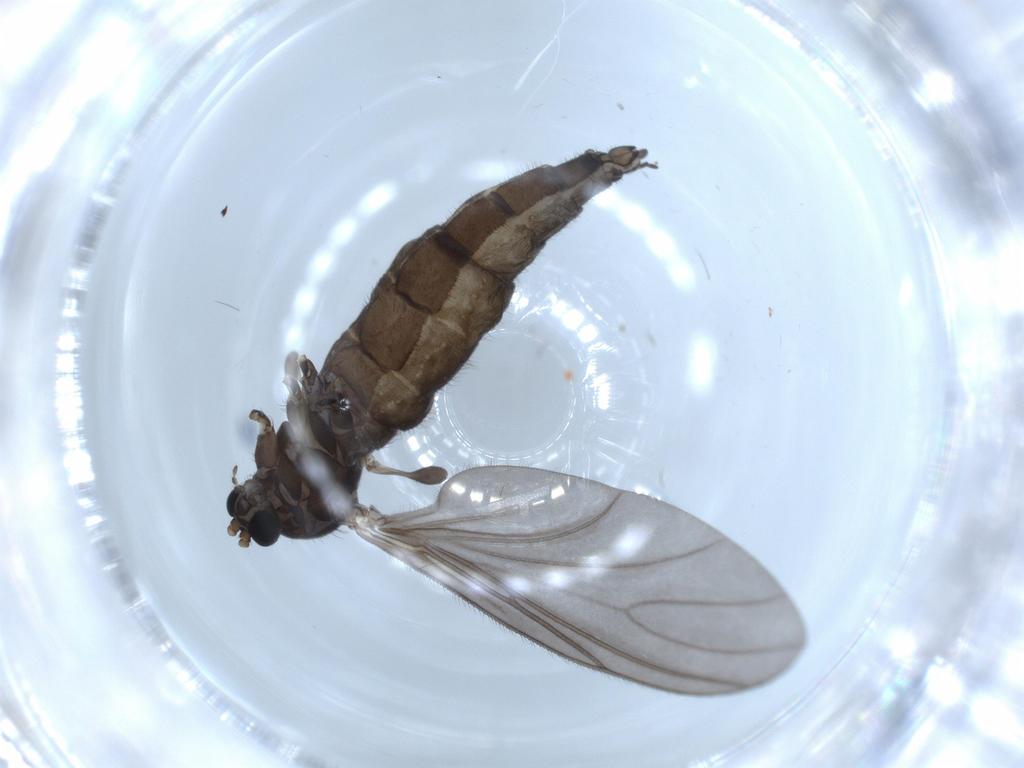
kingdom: Animalia
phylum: Arthropoda
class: Insecta
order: Diptera
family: Sciaridae
